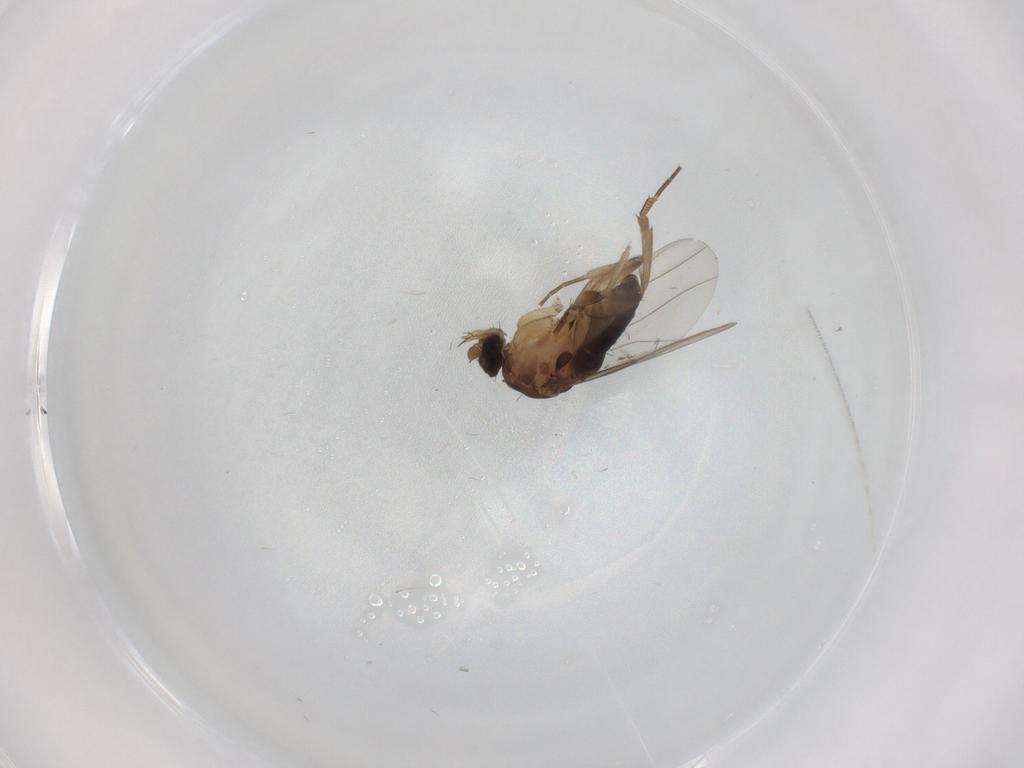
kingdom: Animalia
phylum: Arthropoda
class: Insecta
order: Diptera
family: Phoridae
